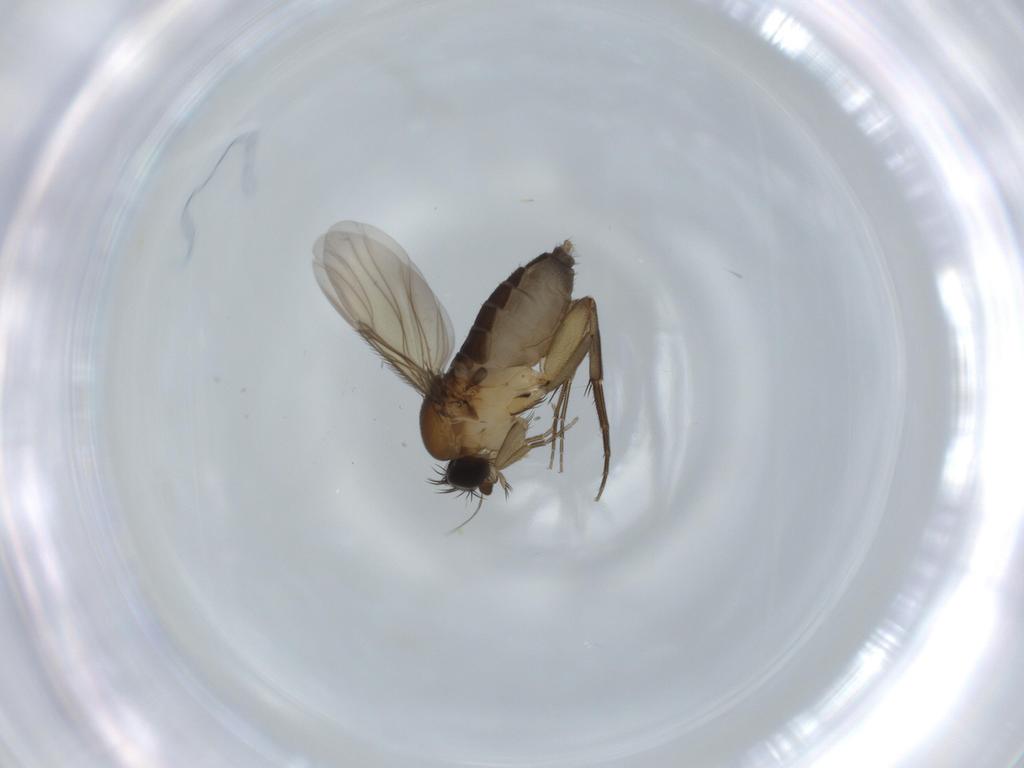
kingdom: Animalia
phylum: Arthropoda
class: Insecta
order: Diptera
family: Phoridae
